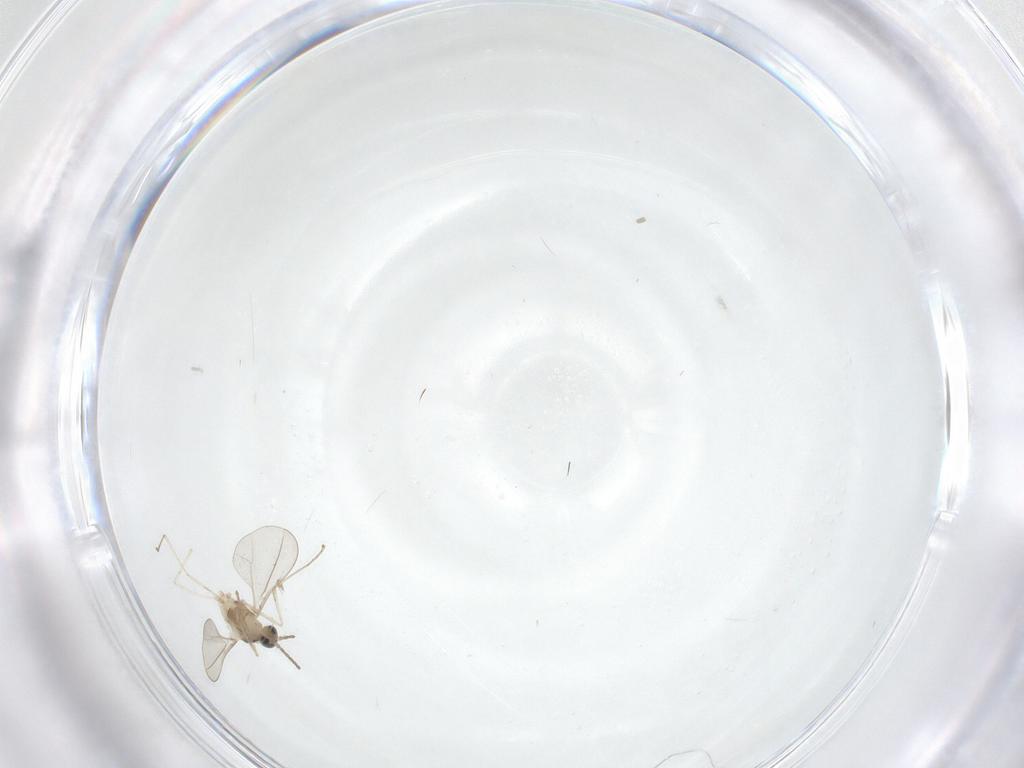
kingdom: Animalia
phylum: Arthropoda
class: Insecta
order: Diptera
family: Cecidomyiidae
